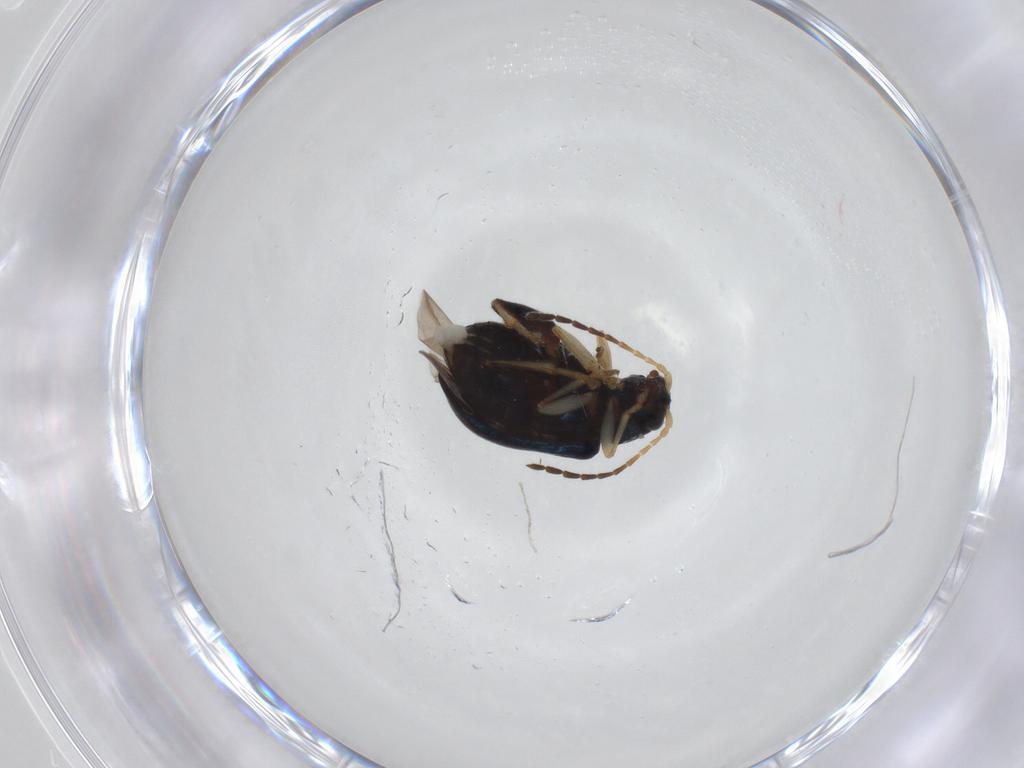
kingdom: Animalia
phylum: Arthropoda
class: Insecta
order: Coleoptera
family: Chrysomelidae
